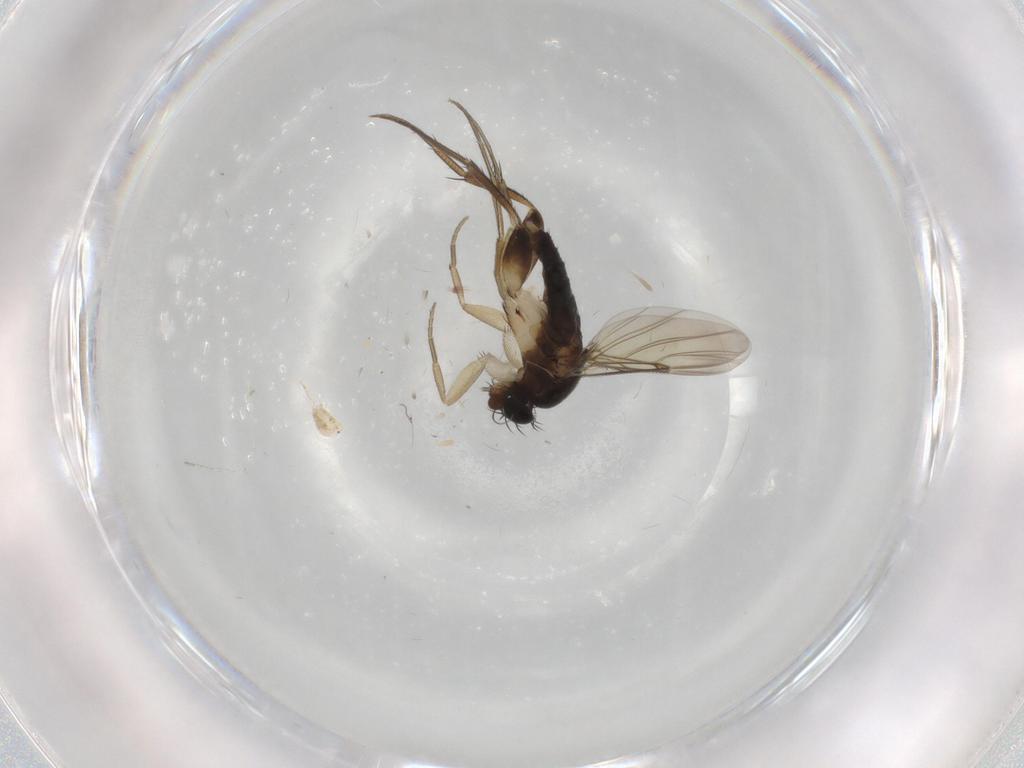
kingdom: Animalia
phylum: Arthropoda
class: Insecta
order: Diptera
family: Phoridae
